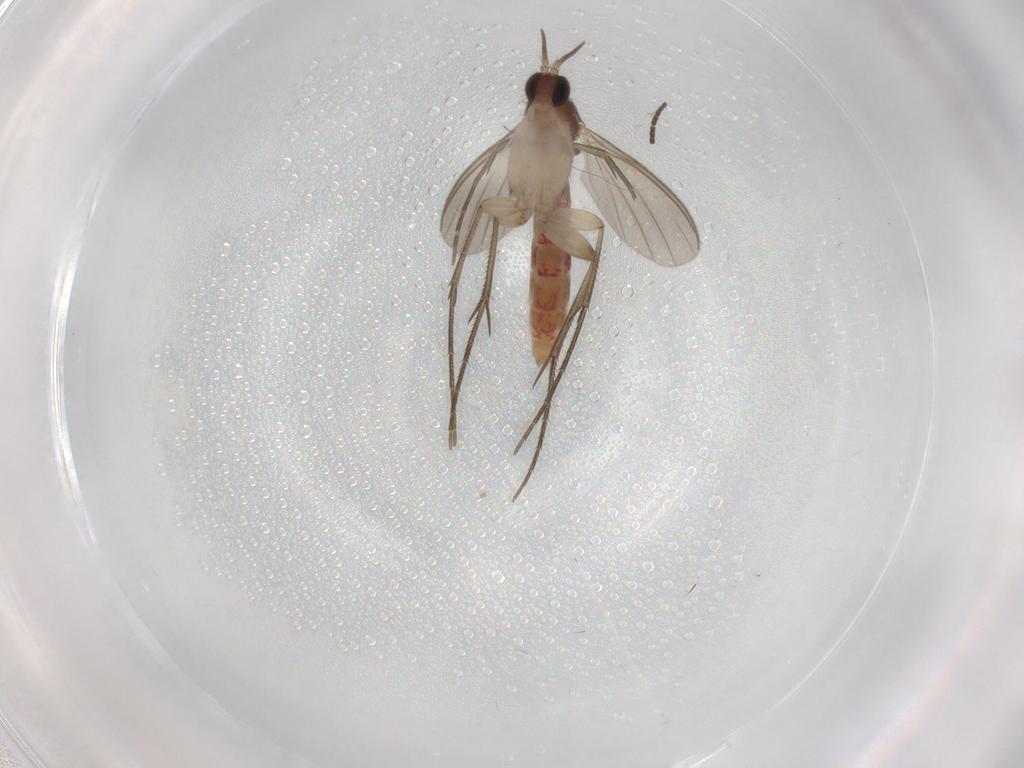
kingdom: Animalia
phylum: Arthropoda
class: Insecta
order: Diptera
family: Mycetophilidae
